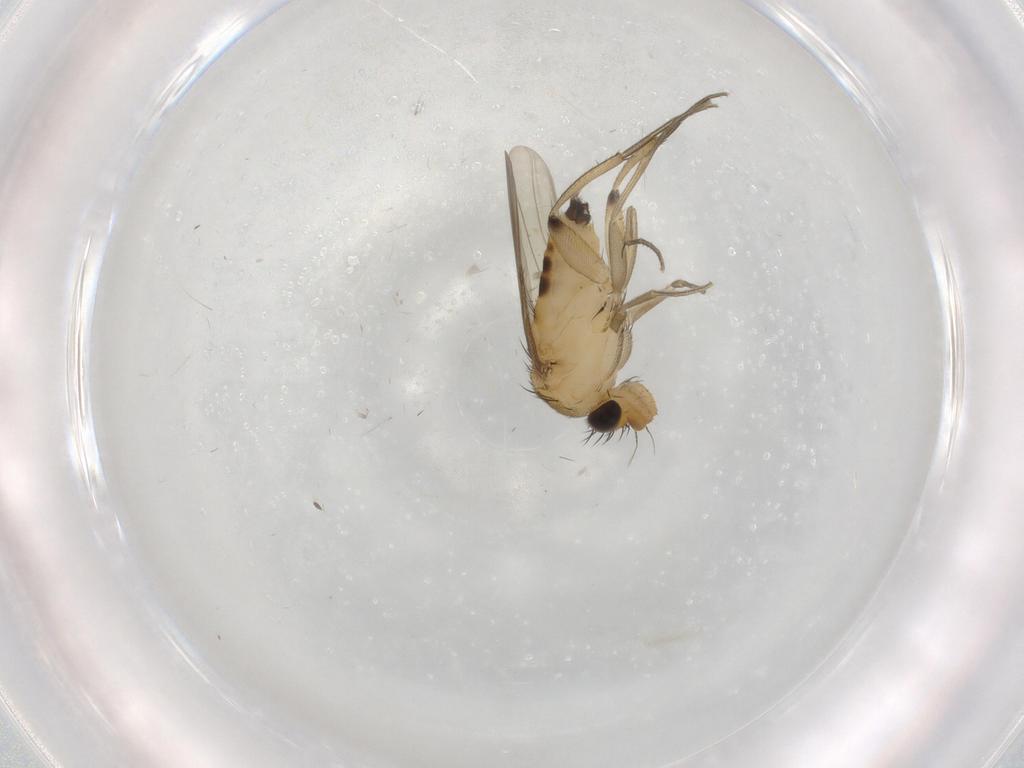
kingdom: Animalia
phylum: Arthropoda
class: Insecta
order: Diptera
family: Phoridae
